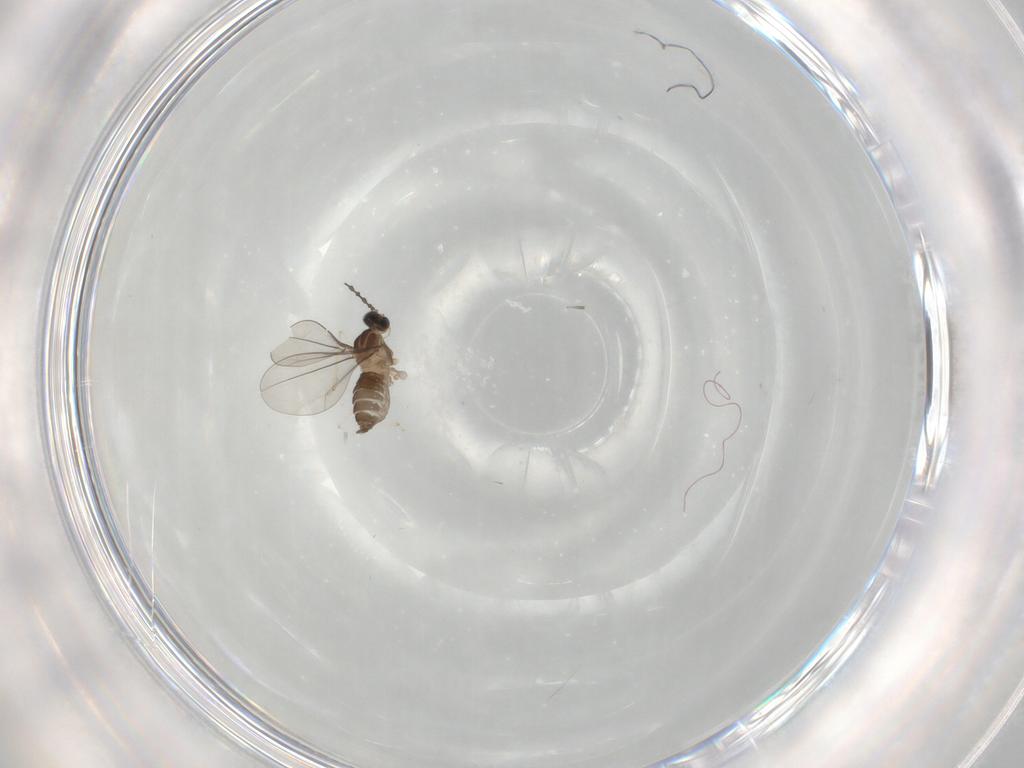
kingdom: Animalia
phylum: Arthropoda
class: Insecta
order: Diptera
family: Cecidomyiidae
